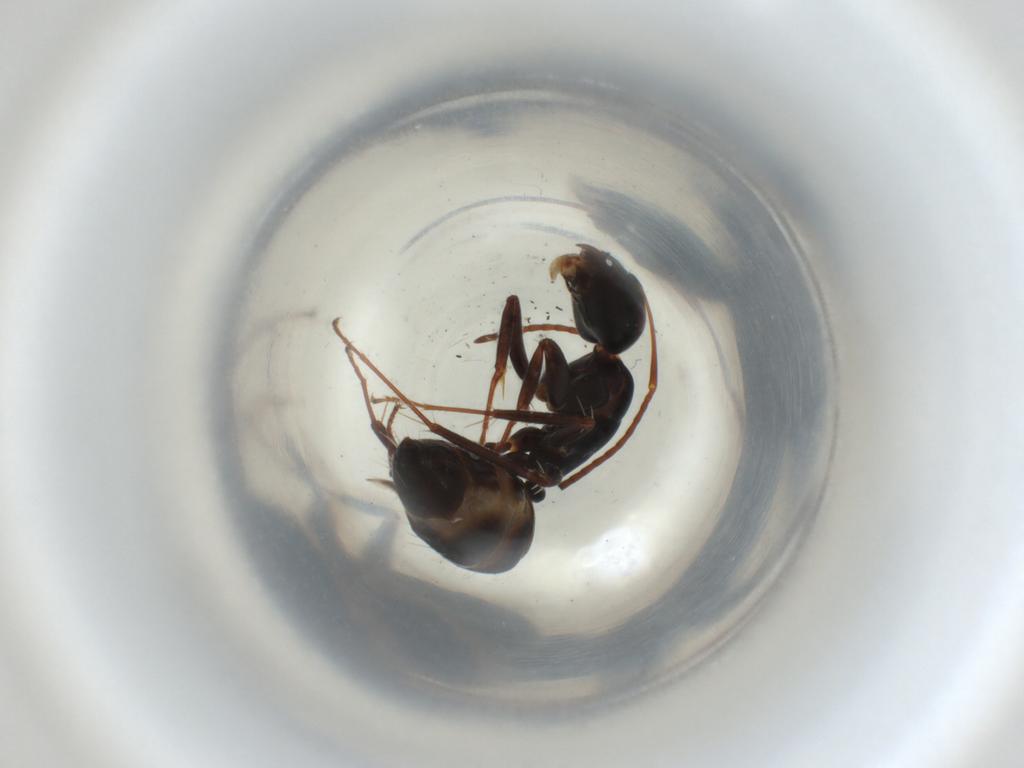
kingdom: Animalia
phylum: Arthropoda
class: Insecta
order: Hymenoptera
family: Formicidae
